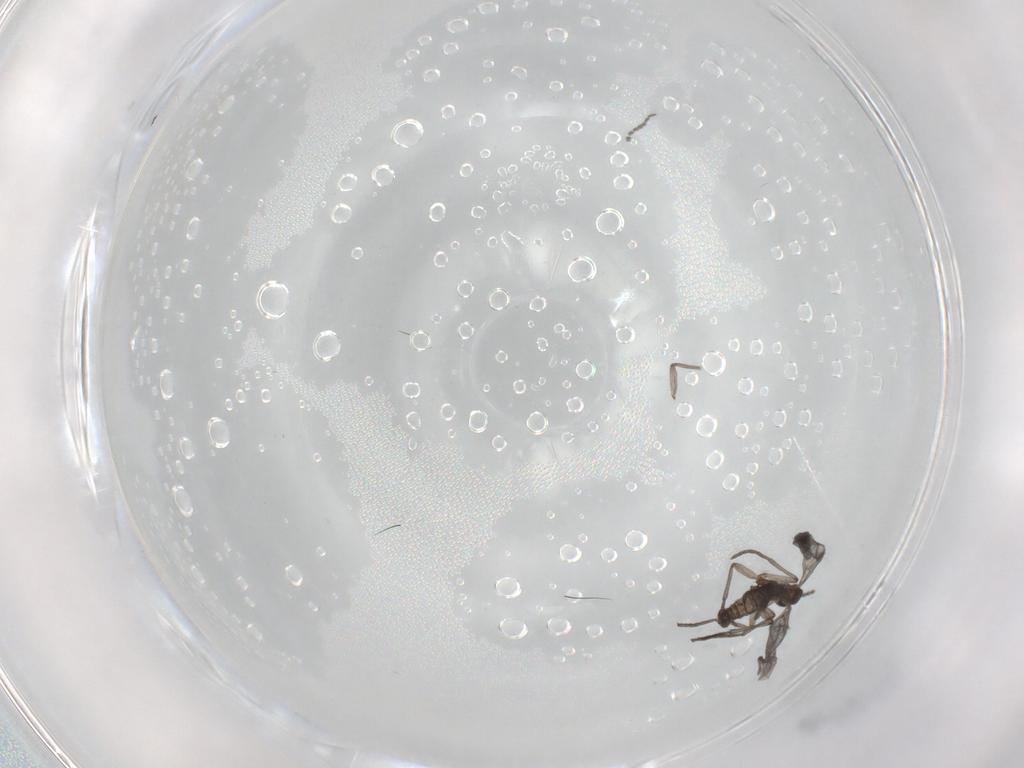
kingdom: Animalia
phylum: Arthropoda
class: Insecta
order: Diptera
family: Sciaridae
